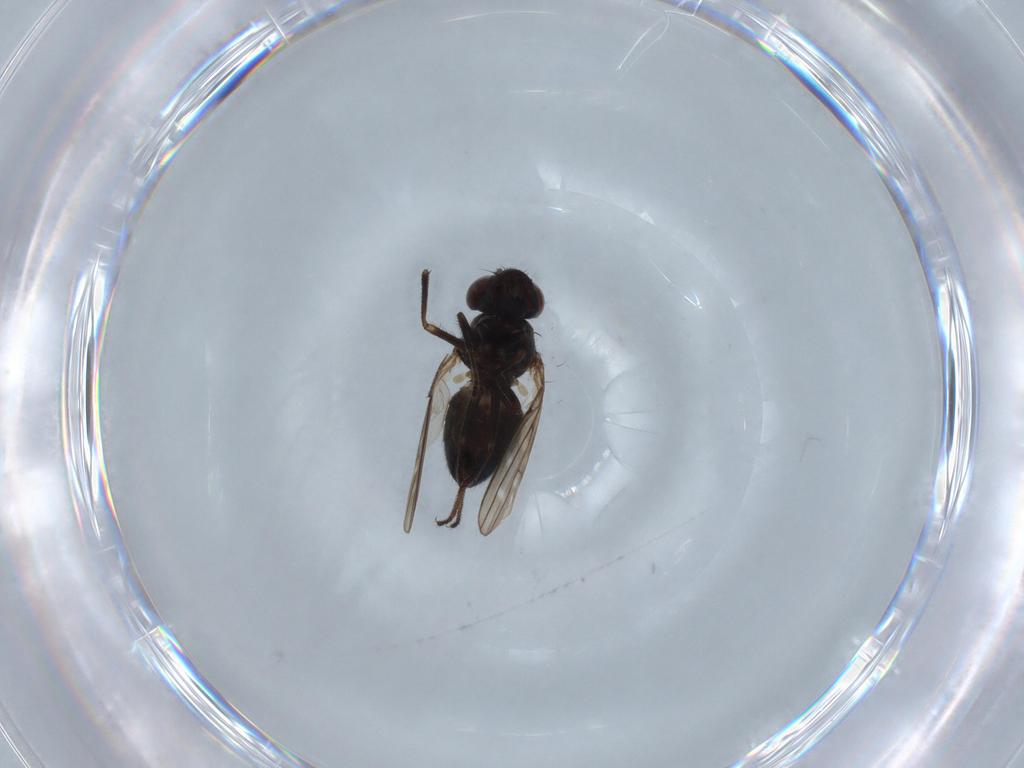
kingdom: Animalia
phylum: Arthropoda
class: Insecta
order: Diptera
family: Ephydridae
